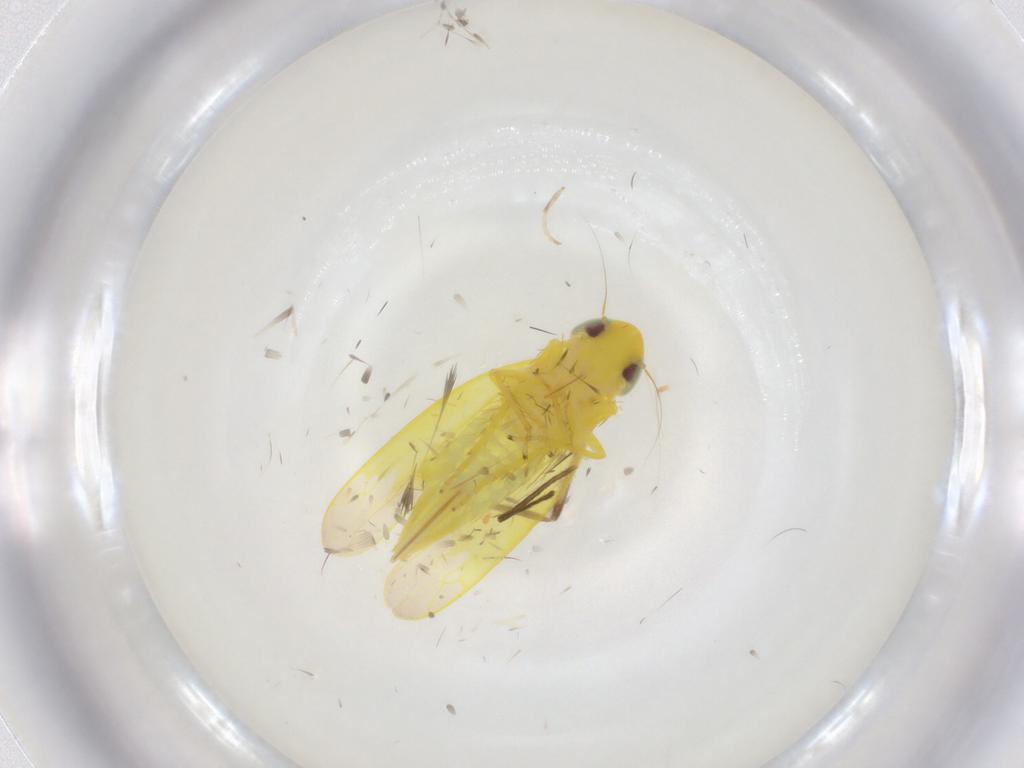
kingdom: Animalia
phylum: Arthropoda
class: Insecta
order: Hemiptera
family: Cicadellidae
